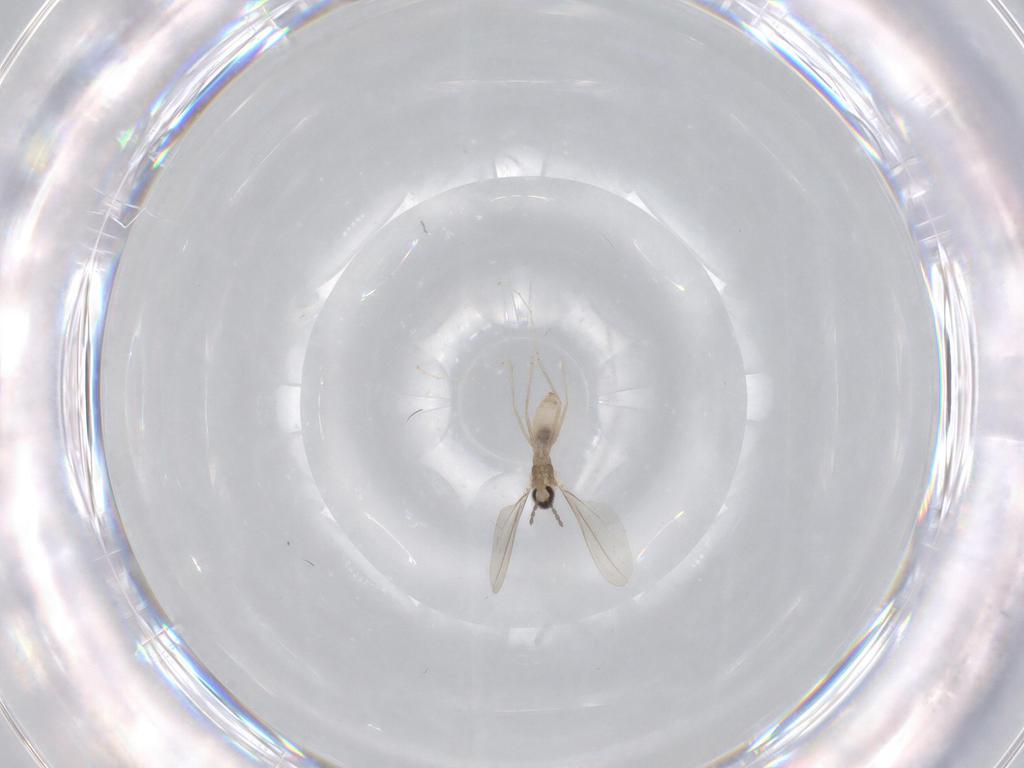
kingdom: Animalia
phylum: Arthropoda
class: Insecta
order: Diptera
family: Cecidomyiidae
